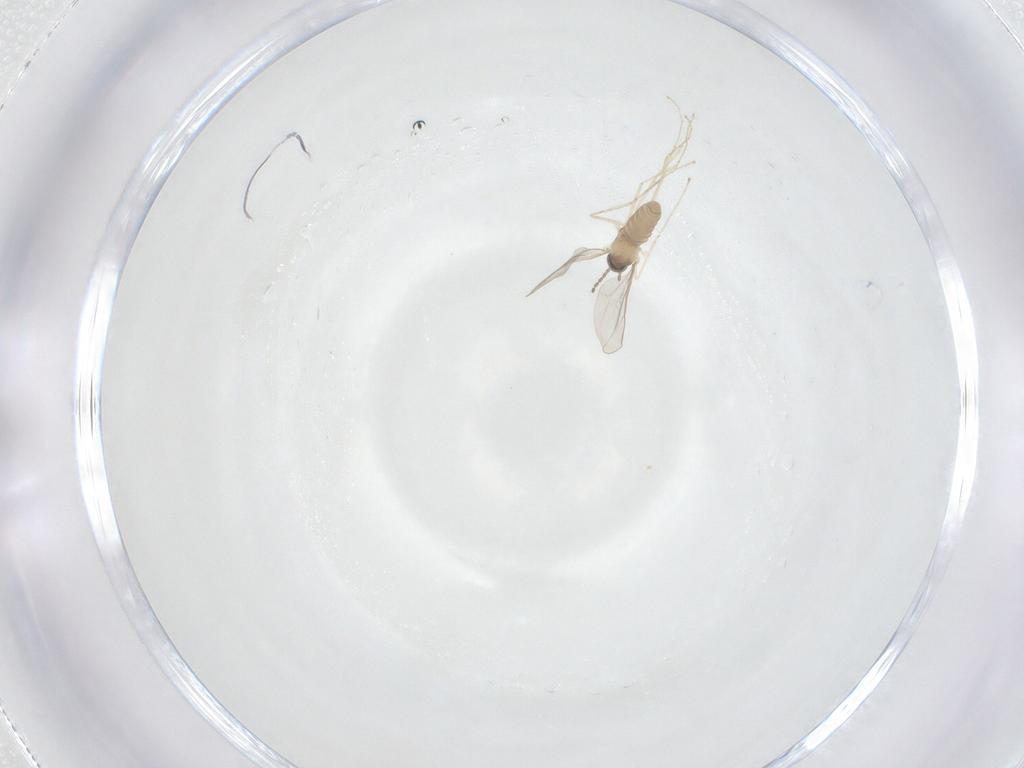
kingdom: Animalia
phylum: Arthropoda
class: Insecta
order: Diptera
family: Cecidomyiidae
